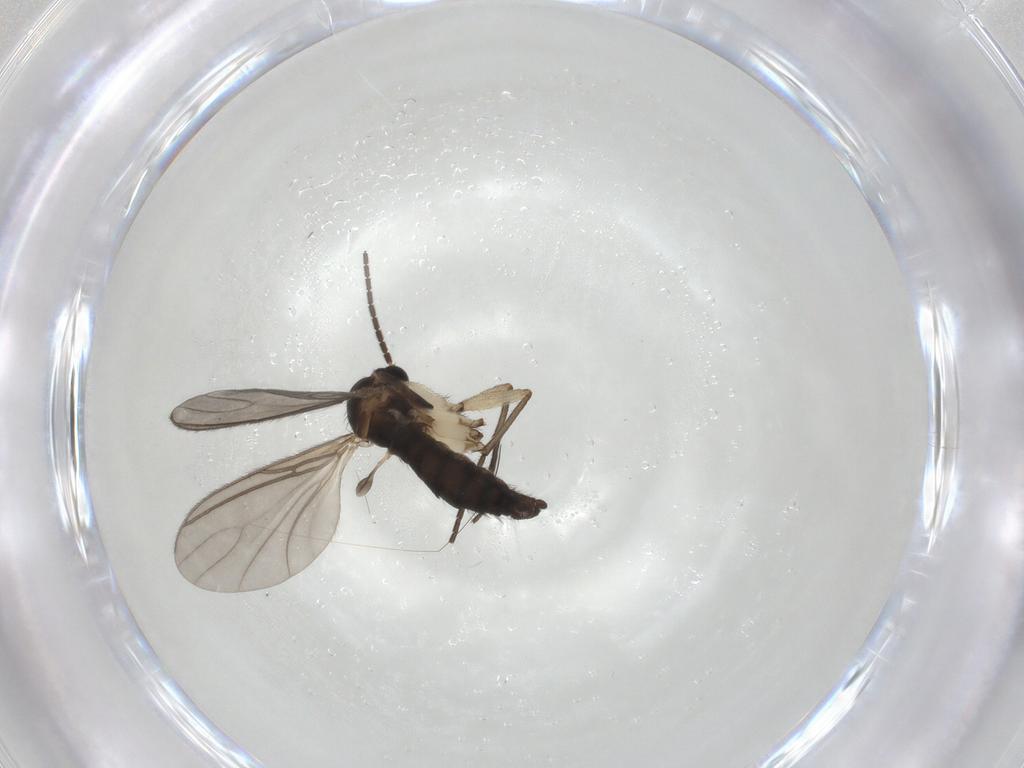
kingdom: Animalia
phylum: Arthropoda
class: Insecta
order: Diptera
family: Sciaridae
